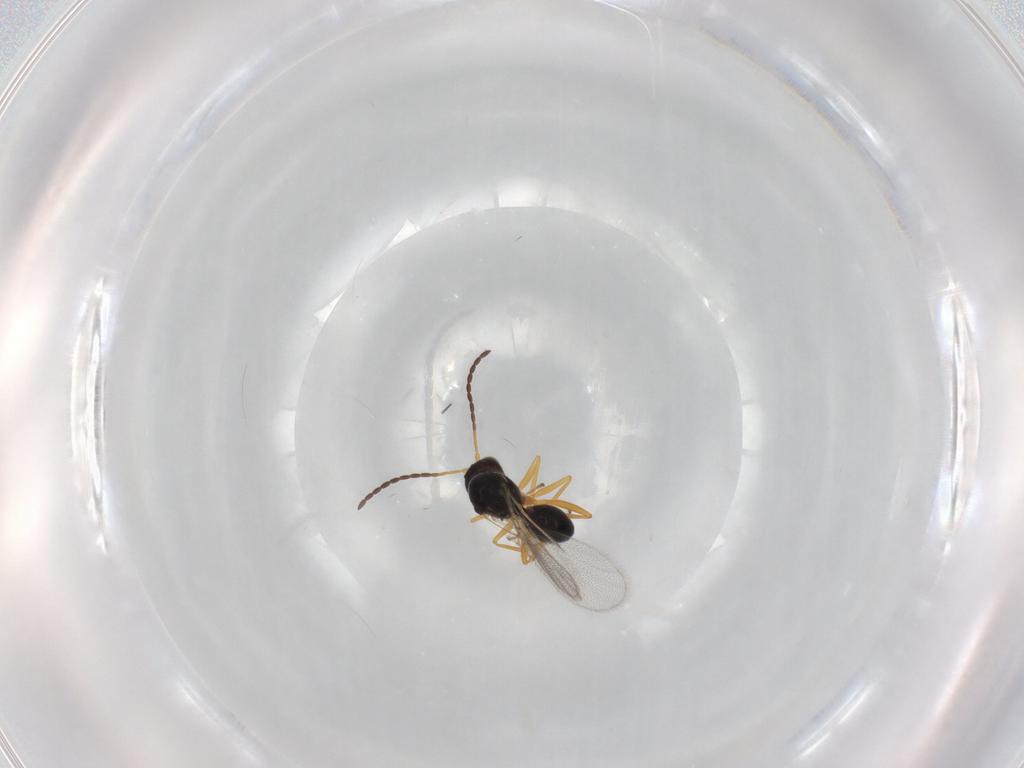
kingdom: Animalia
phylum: Arthropoda
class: Insecta
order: Hymenoptera
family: Figitidae
